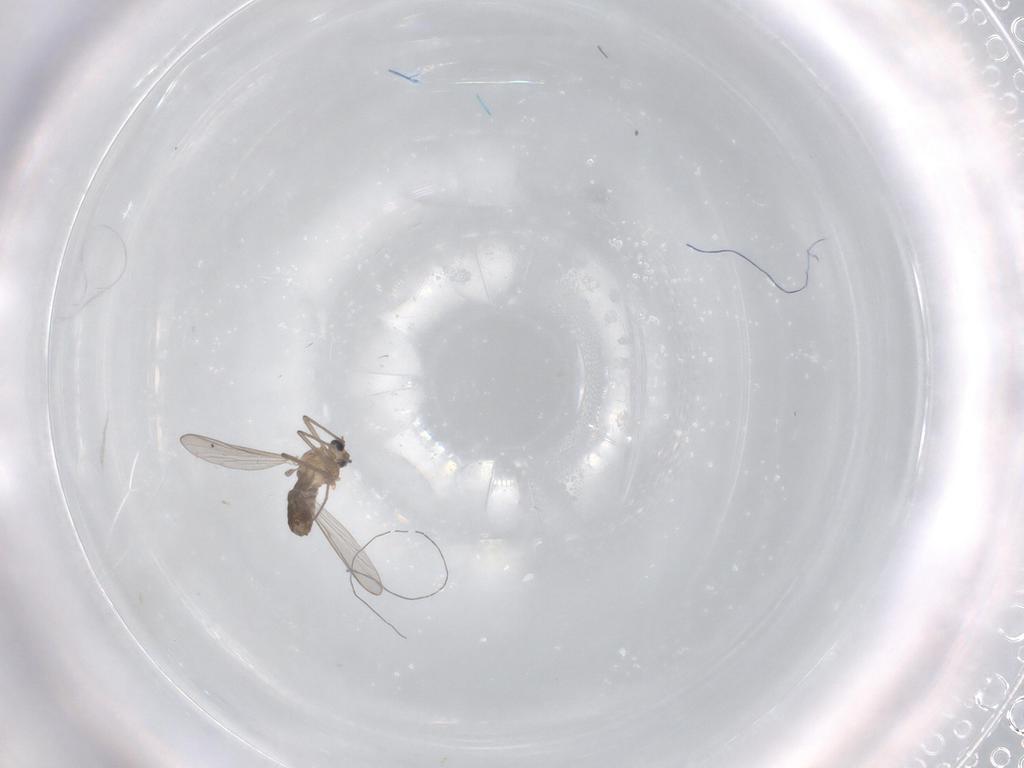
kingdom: Animalia
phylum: Arthropoda
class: Insecta
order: Diptera
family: Chironomidae
